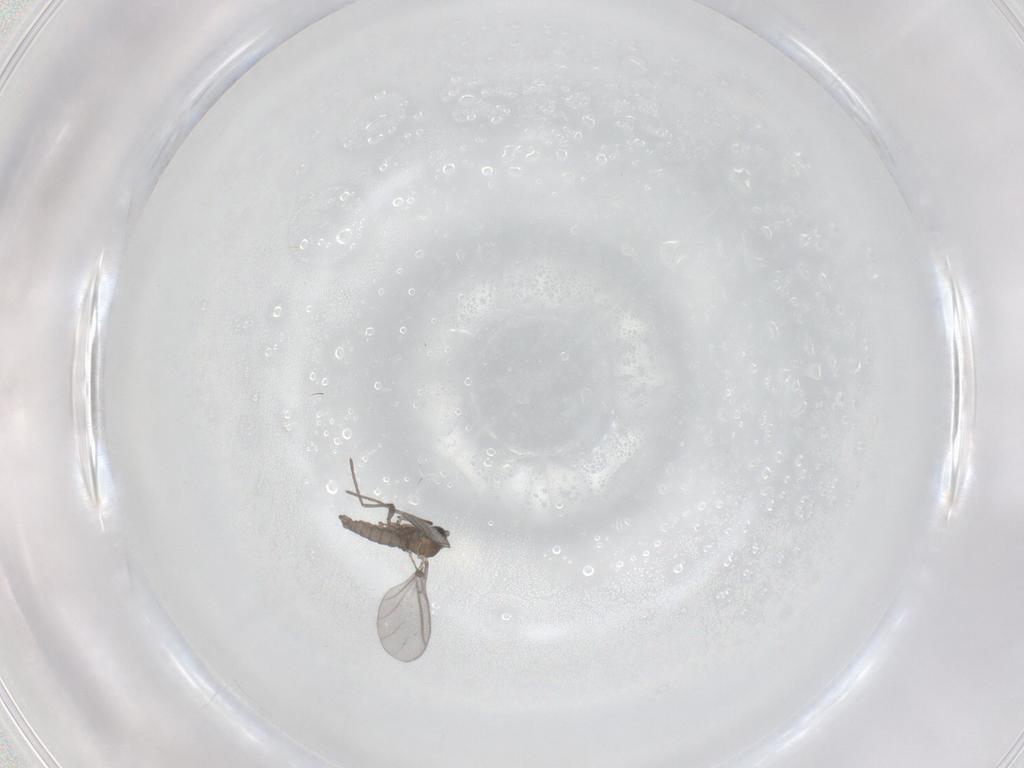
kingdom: Animalia
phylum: Arthropoda
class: Insecta
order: Diptera
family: Sciaridae
